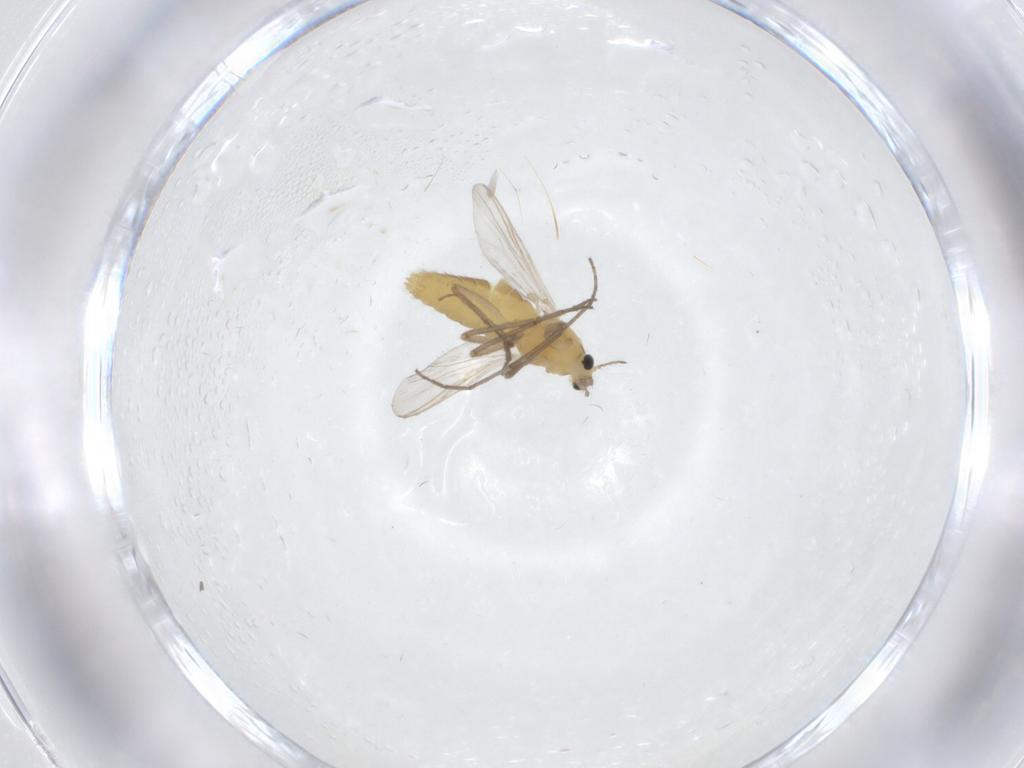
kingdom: Animalia
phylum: Arthropoda
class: Insecta
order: Diptera
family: Chironomidae
